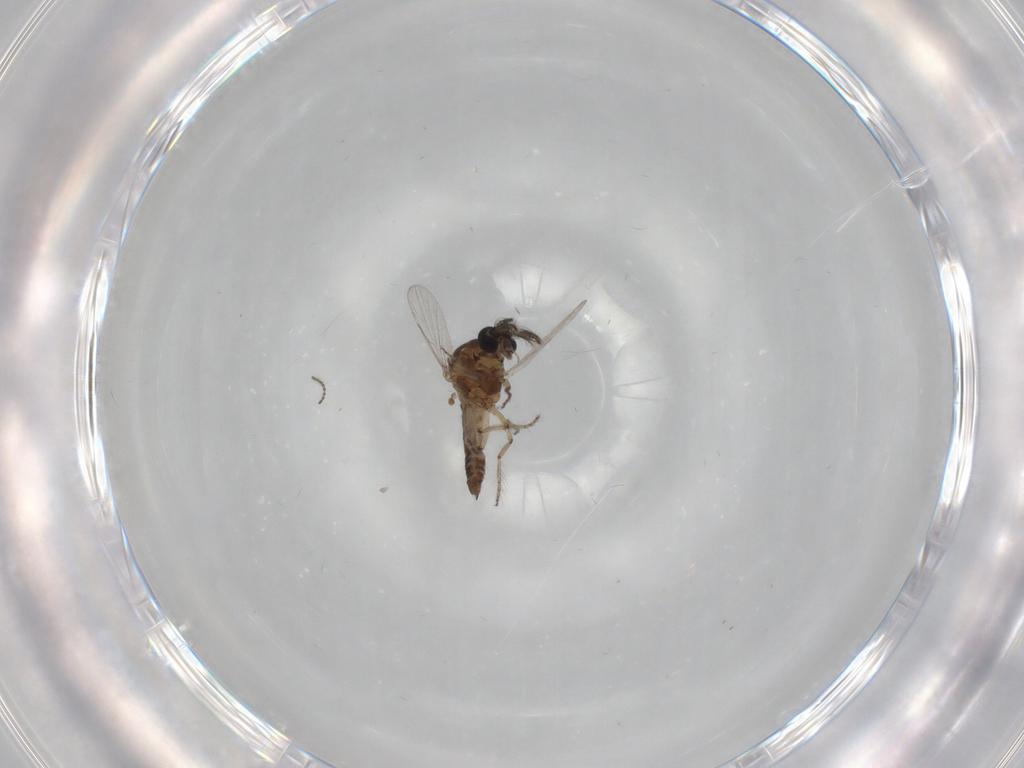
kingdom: Animalia
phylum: Arthropoda
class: Insecta
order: Diptera
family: Ceratopogonidae
